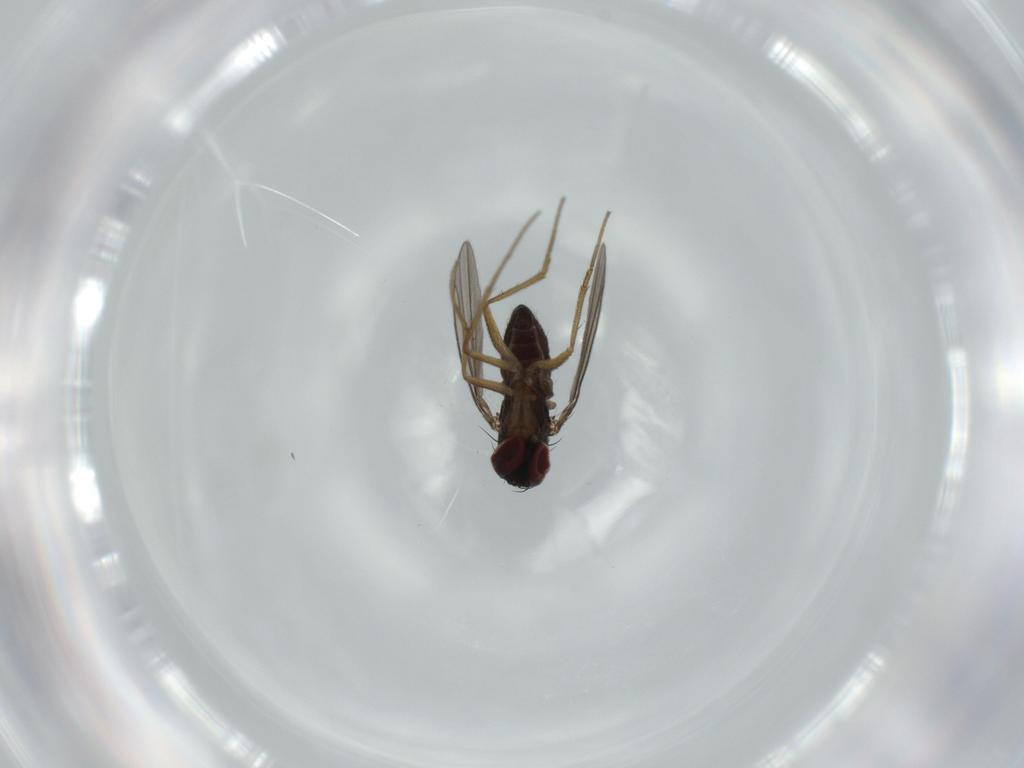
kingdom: Animalia
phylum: Arthropoda
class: Insecta
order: Diptera
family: Dolichopodidae
